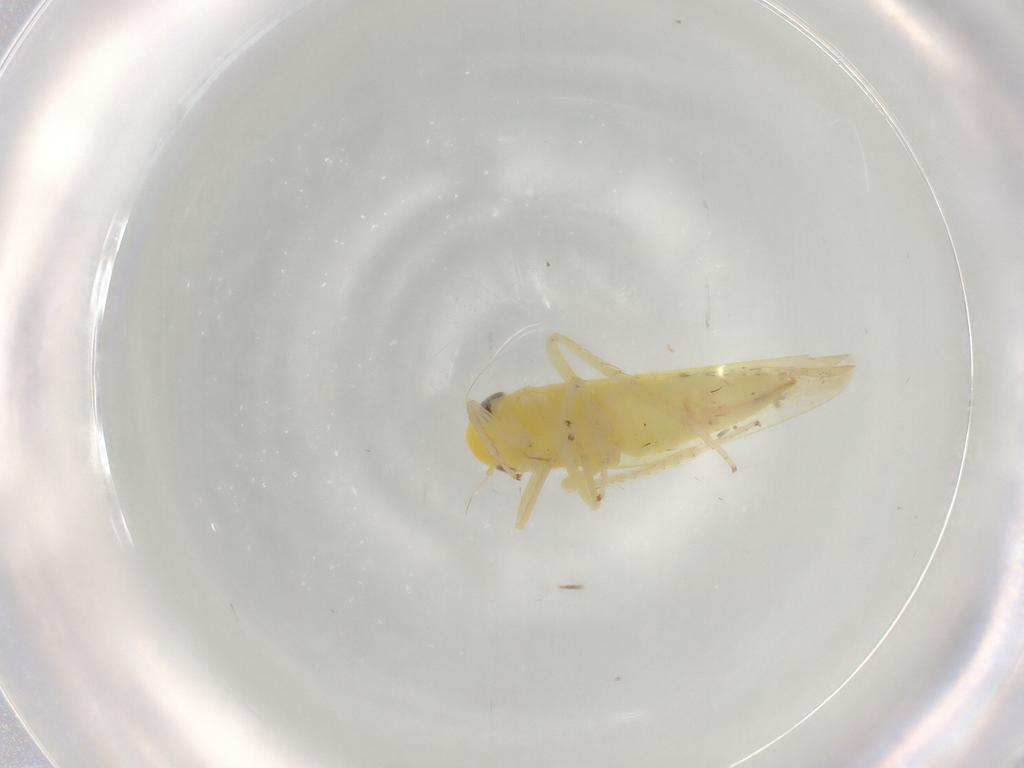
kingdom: Animalia
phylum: Arthropoda
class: Insecta
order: Hemiptera
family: Cicadellidae
